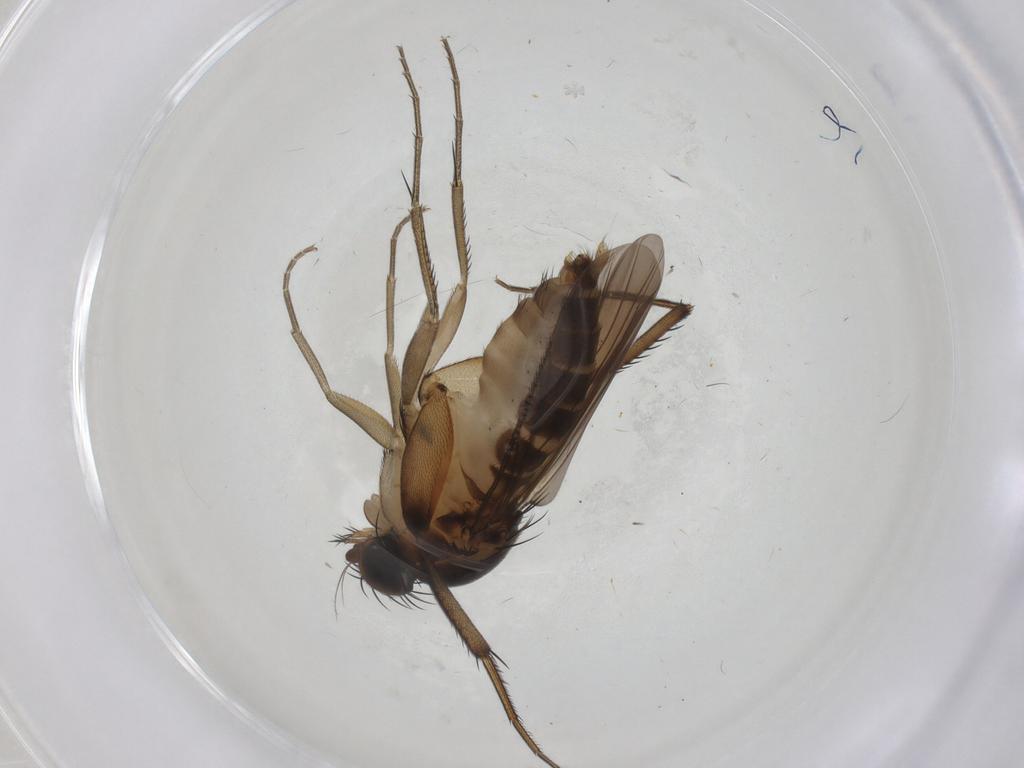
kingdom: Animalia
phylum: Arthropoda
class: Insecta
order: Diptera
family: Phoridae
